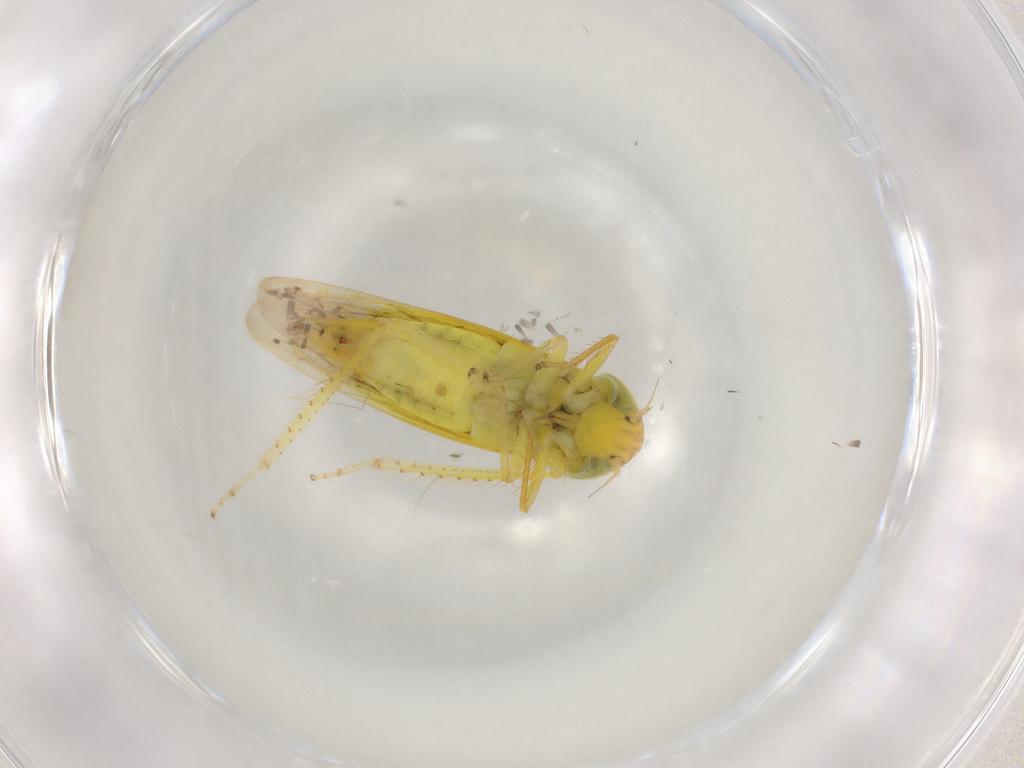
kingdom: Animalia
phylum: Arthropoda
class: Insecta
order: Hemiptera
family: Cicadellidae
